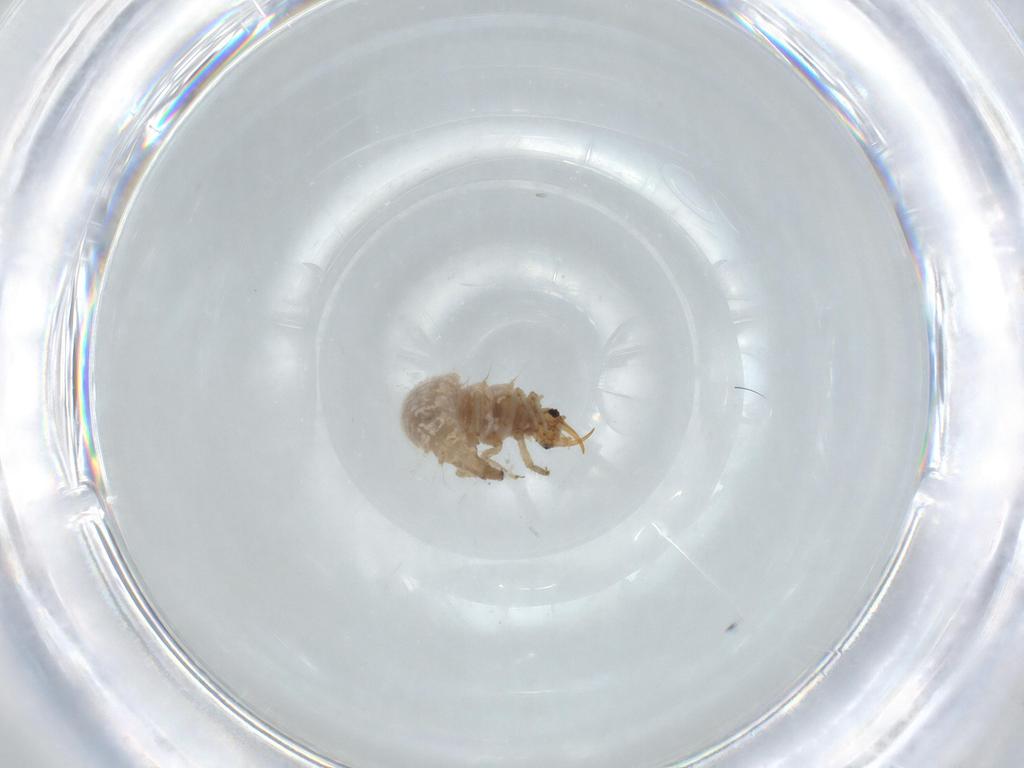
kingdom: Animalia
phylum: Arthropoda
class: Insecta
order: Neuroptera
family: Chrysopidae
